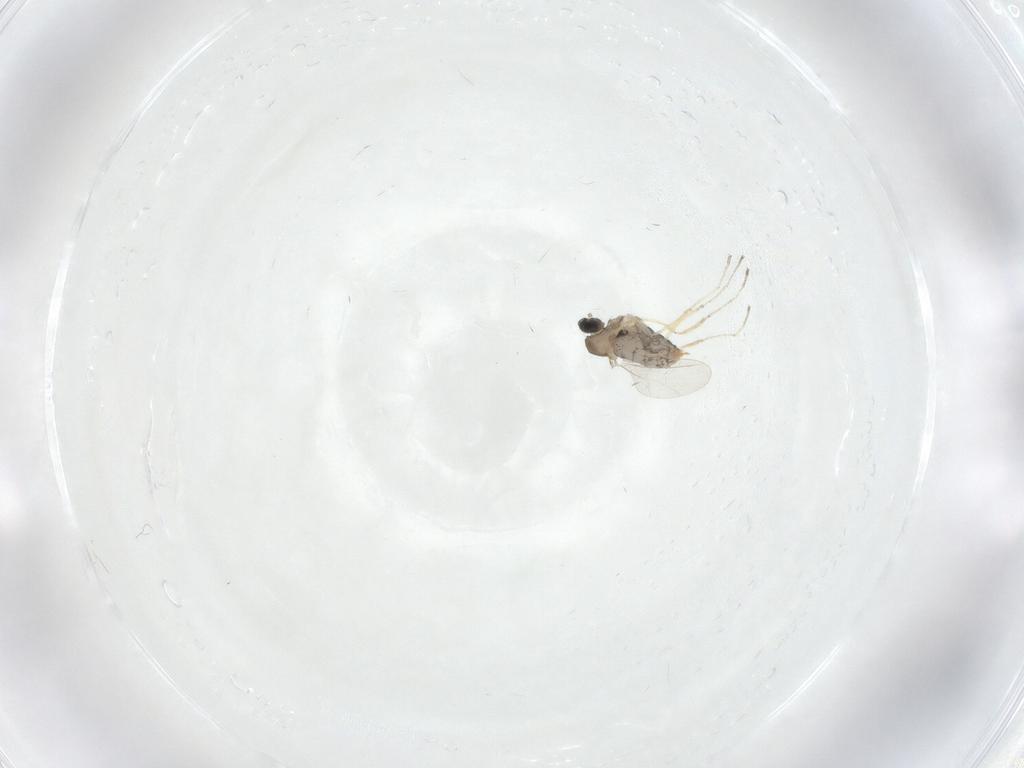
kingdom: Animalia
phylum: Arthropoda
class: Insecta
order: Diptera
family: Cecidomyiidae
